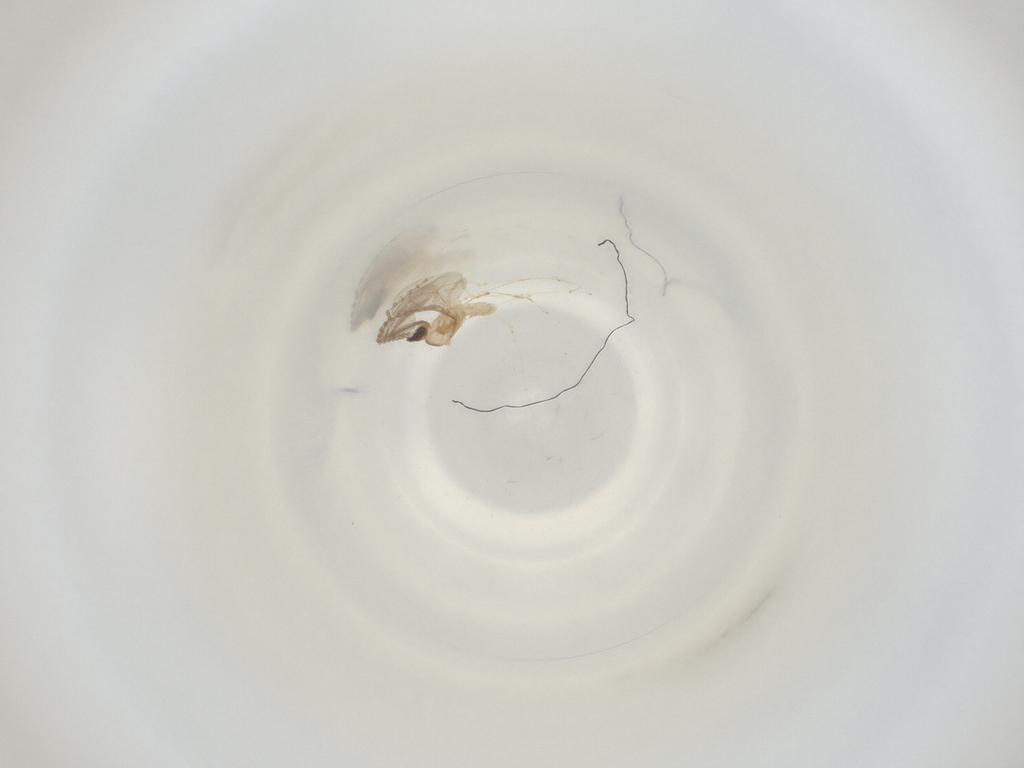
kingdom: Animalia
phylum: Arthropoda
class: Insecta
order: Diptera
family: Cecidomyiidae
